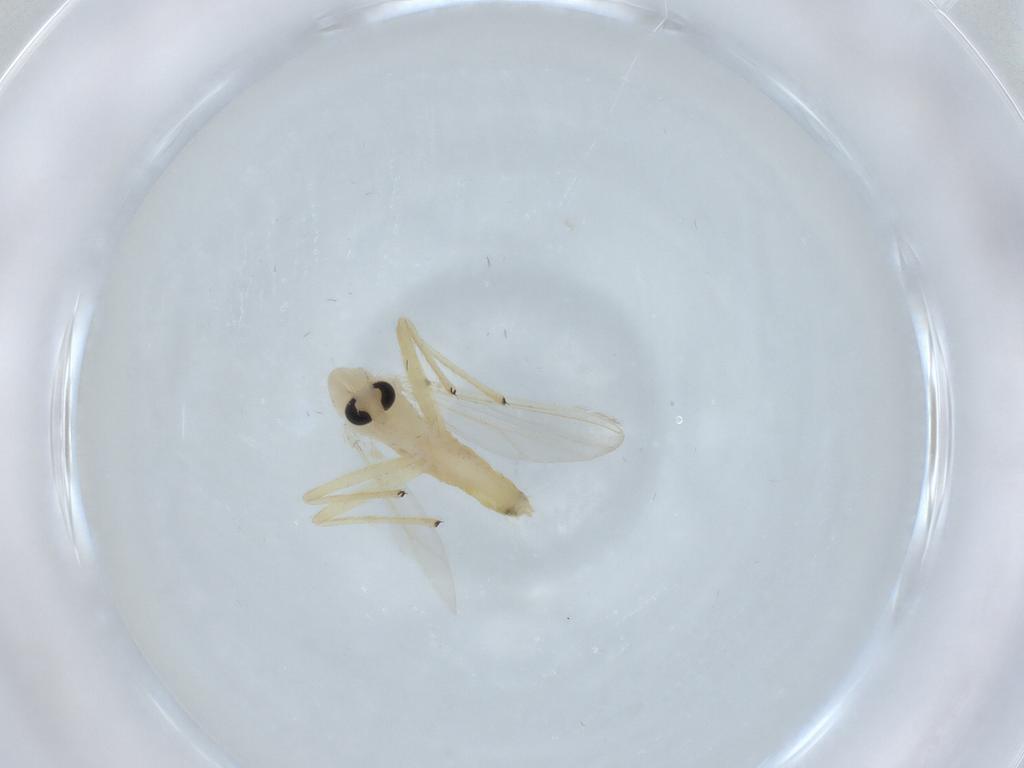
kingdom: Animalia
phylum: Arthropoda
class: Insecta
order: Diptera
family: Chironomidae
